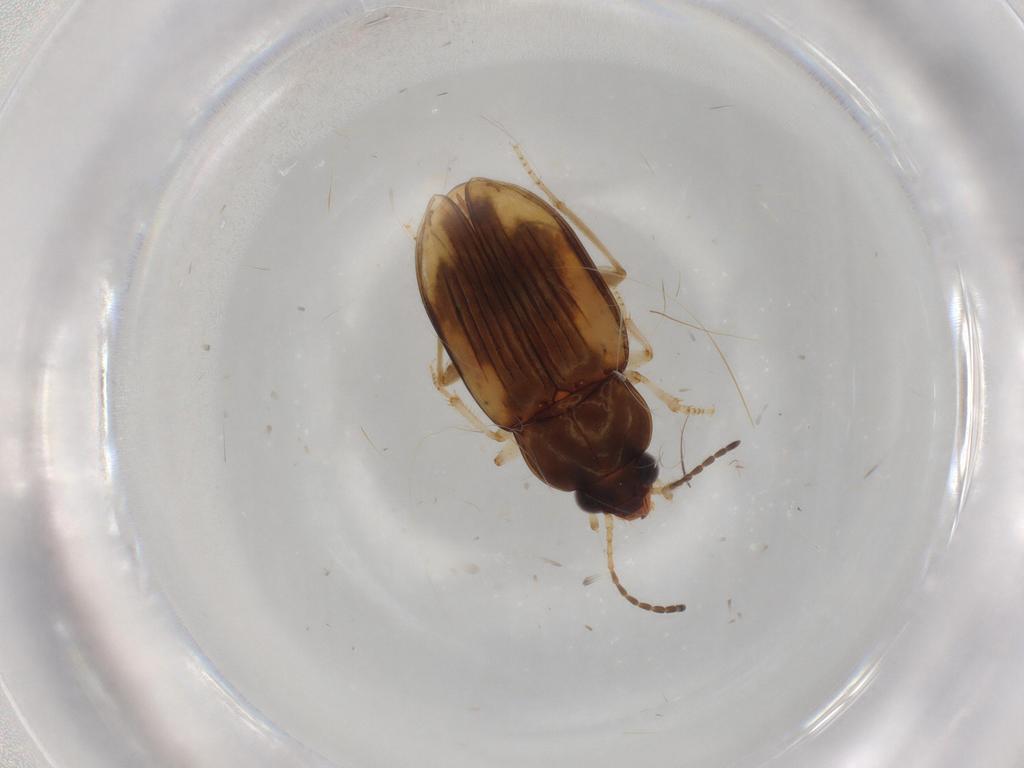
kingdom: Animalia
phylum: Arthropoda
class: Insecta
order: Coleoptera
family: Carabidae
